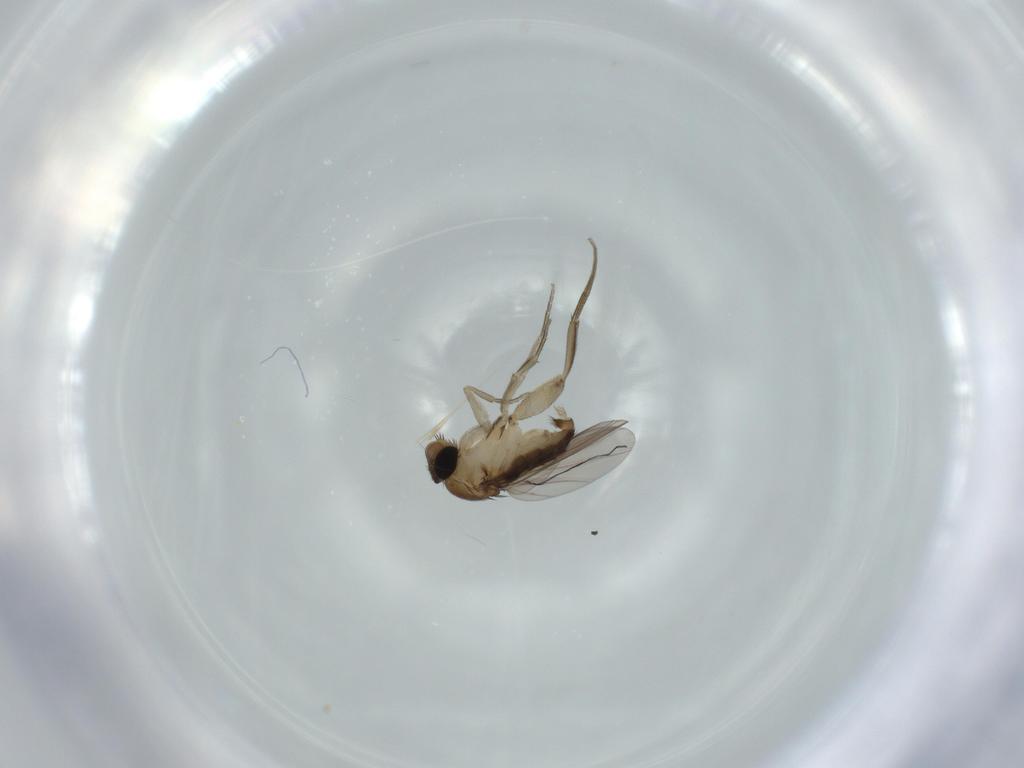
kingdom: Animalia
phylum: Arthropoda
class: Insecta
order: Diptera
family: Phoridae
